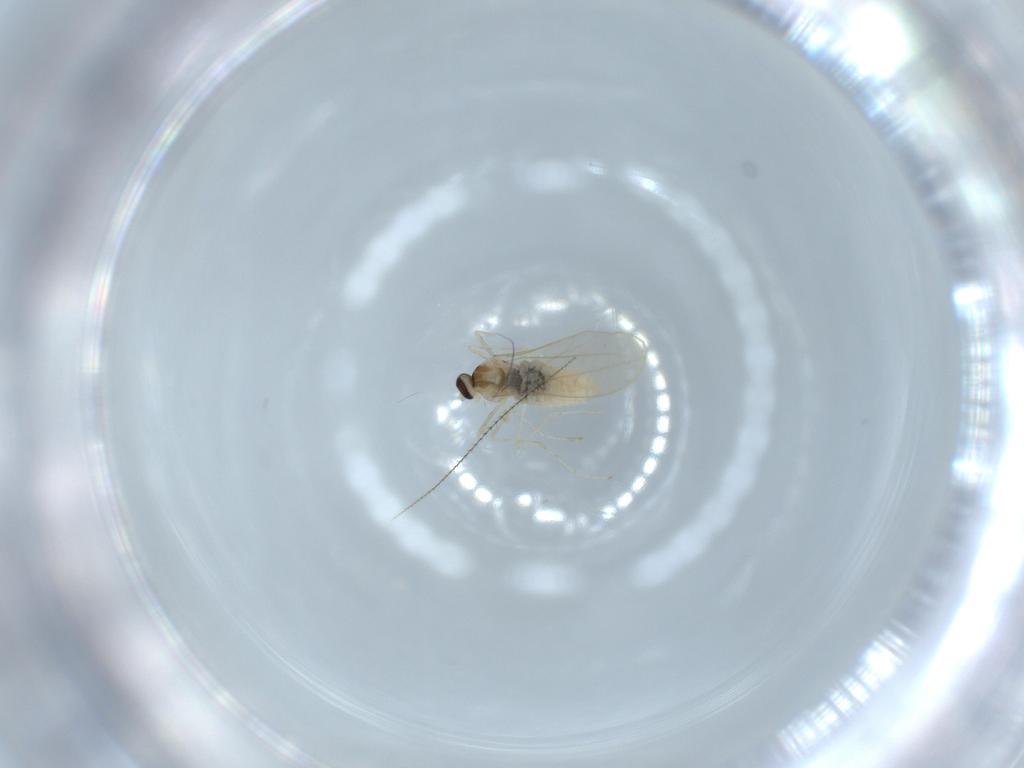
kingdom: Animalia
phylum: Arthropoda
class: Insecta
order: Diptera
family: Cecidomyiidae
